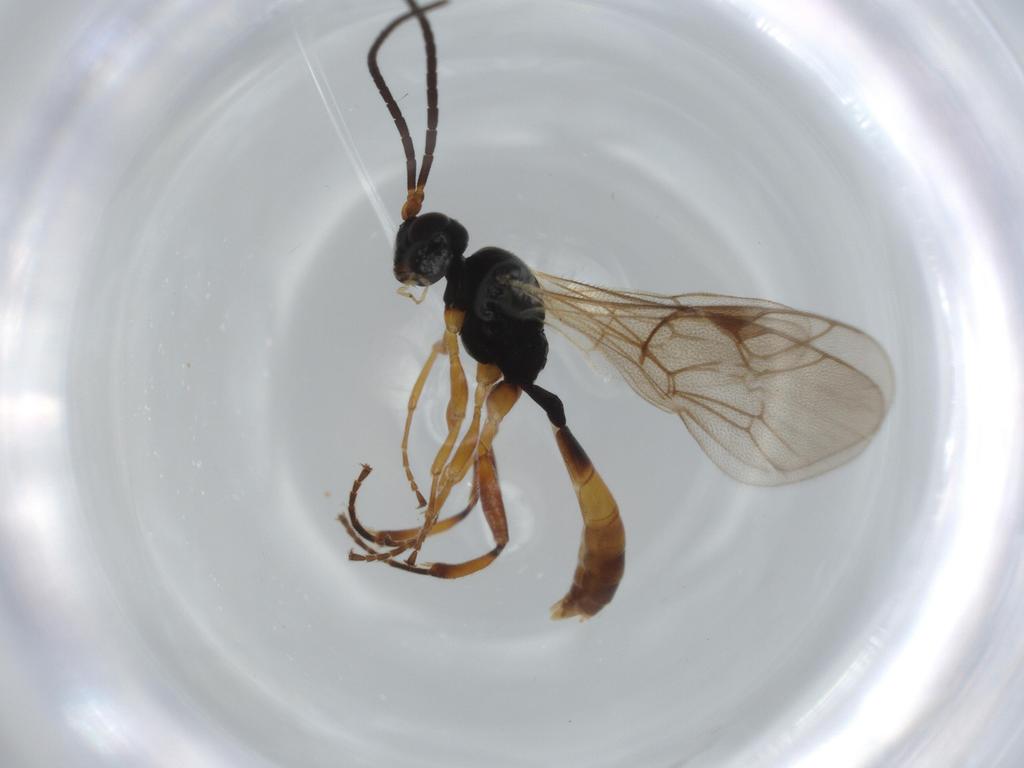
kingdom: Animalia
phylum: Arthropoda
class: Insecta
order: Hymenoptera
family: Ichneumonidae
